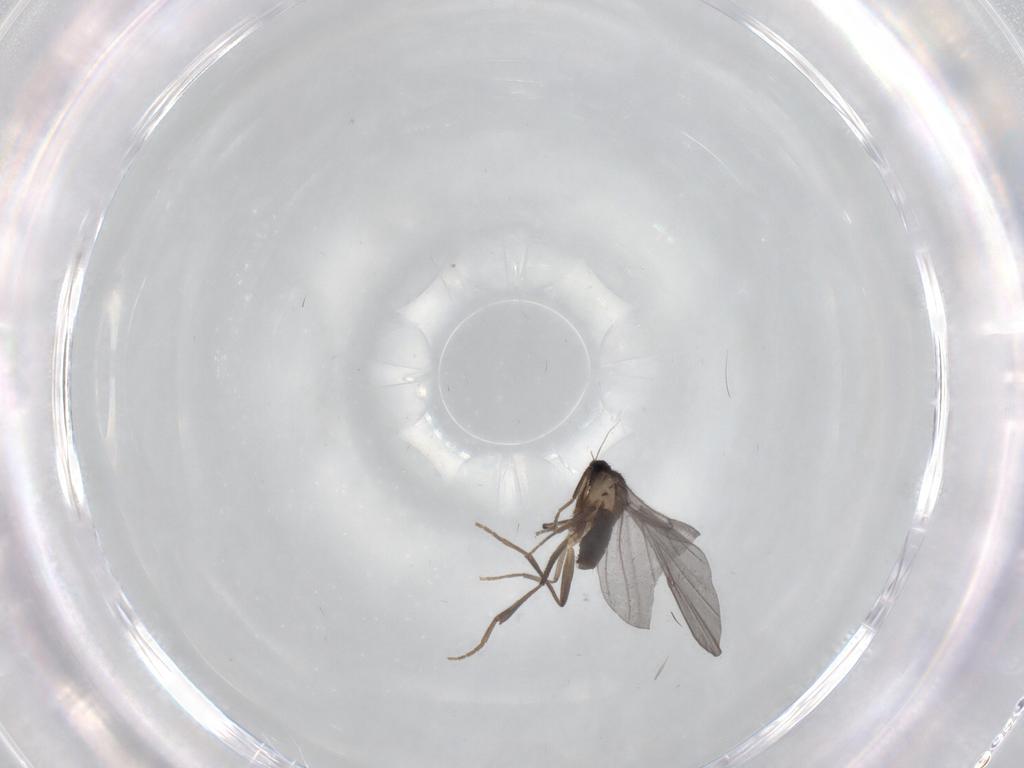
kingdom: Animalia
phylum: Arthropoda
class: Insecta
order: Diptera
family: Phoridae
